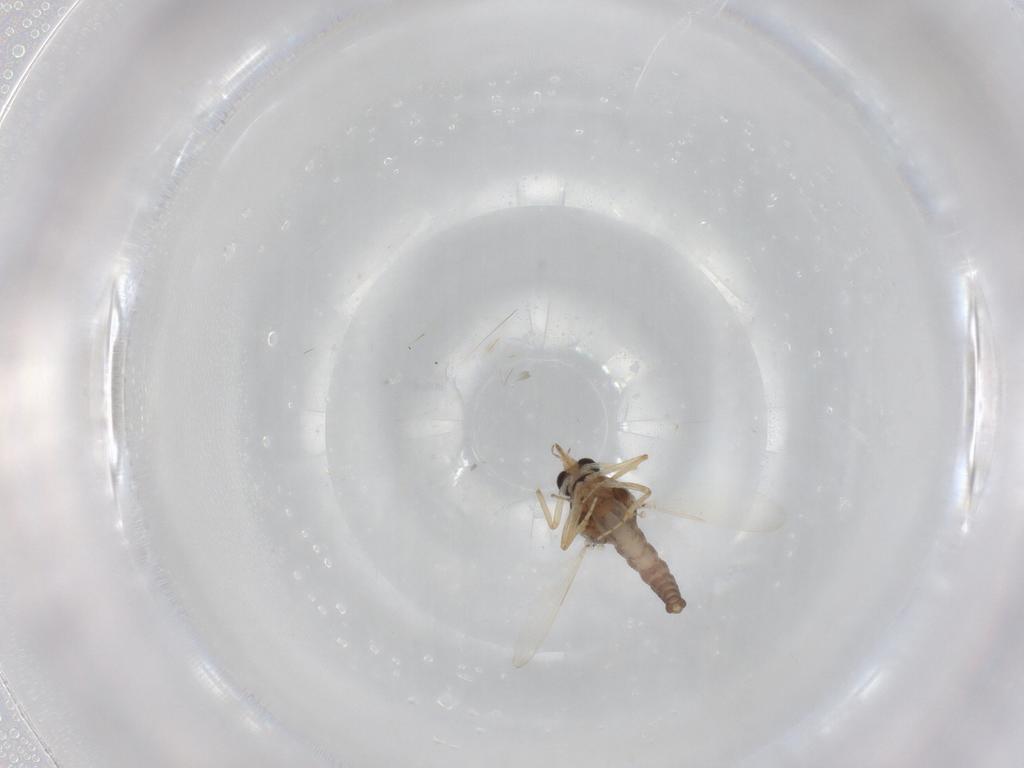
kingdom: Animalia
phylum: Arthropoda
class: Insecta
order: Diptera
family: Ceratopogonidae
